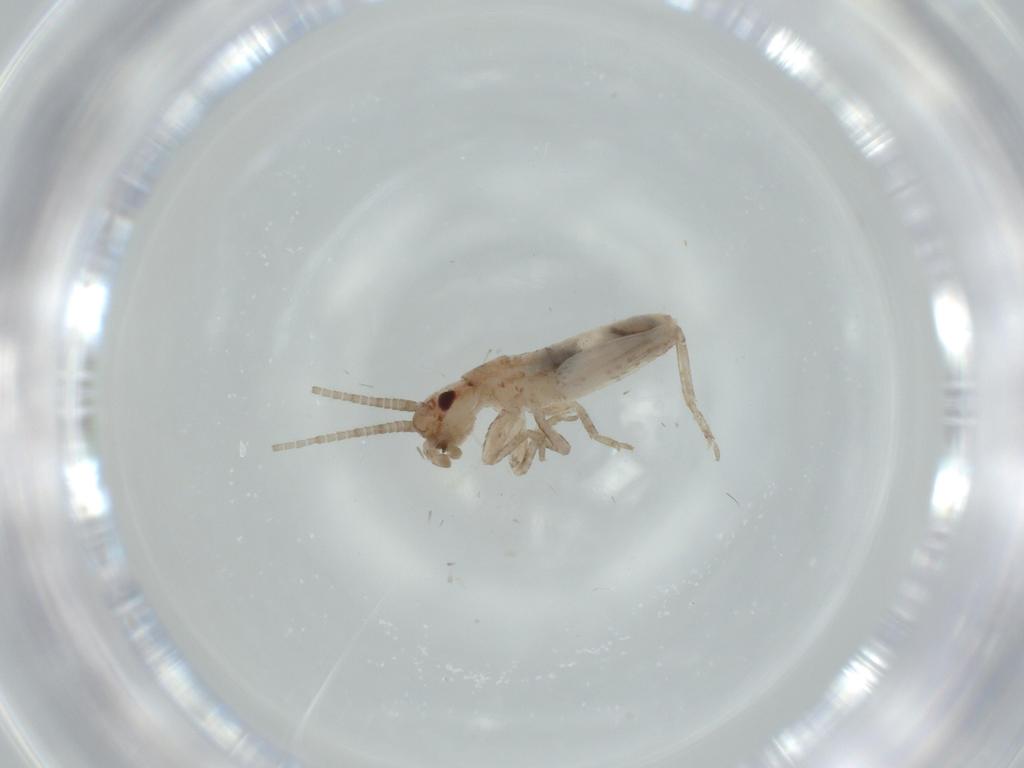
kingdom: Animalia
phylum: Arthropoda
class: Insecta
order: Orthoptera
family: Mogoplistidae
